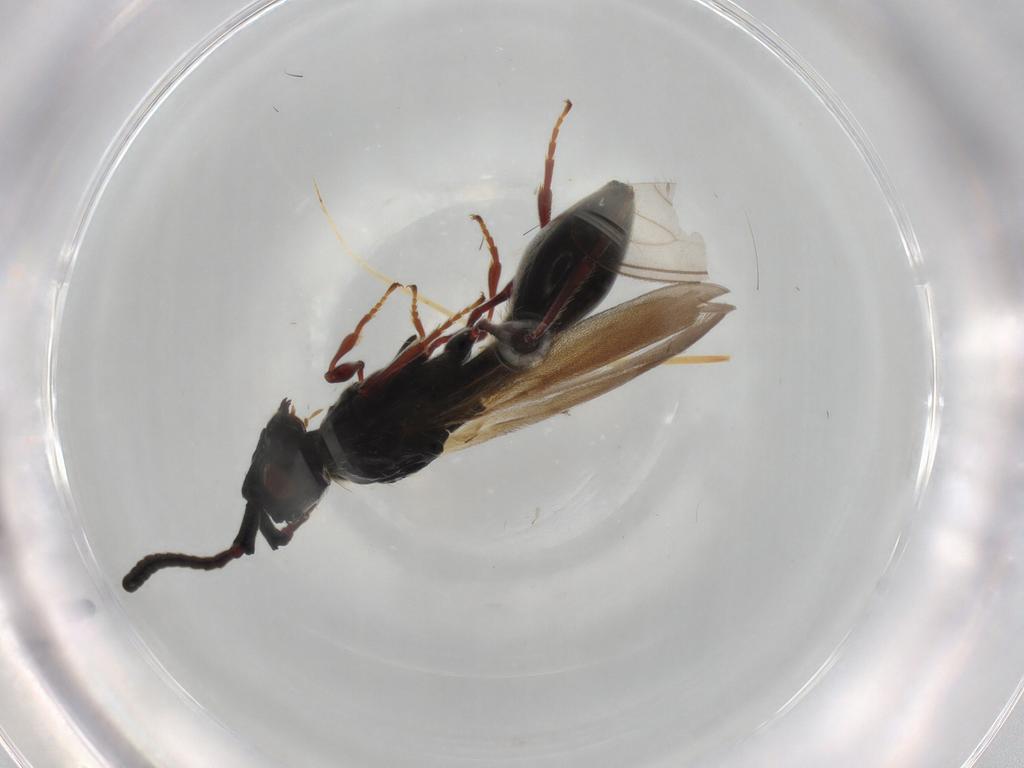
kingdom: Animalia
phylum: Arthropoda
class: Insecta
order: Hymenoptera
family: Diapriidae
